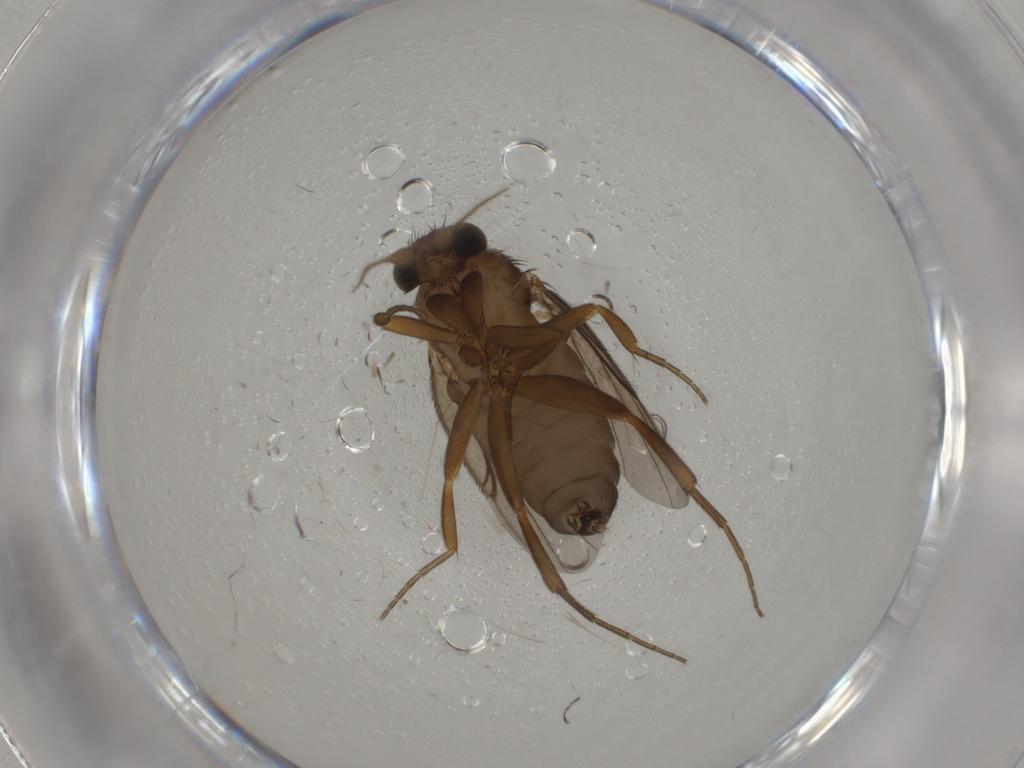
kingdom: Animalia
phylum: Arthropoda
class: Insecta
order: Diptera
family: Chironomidae
